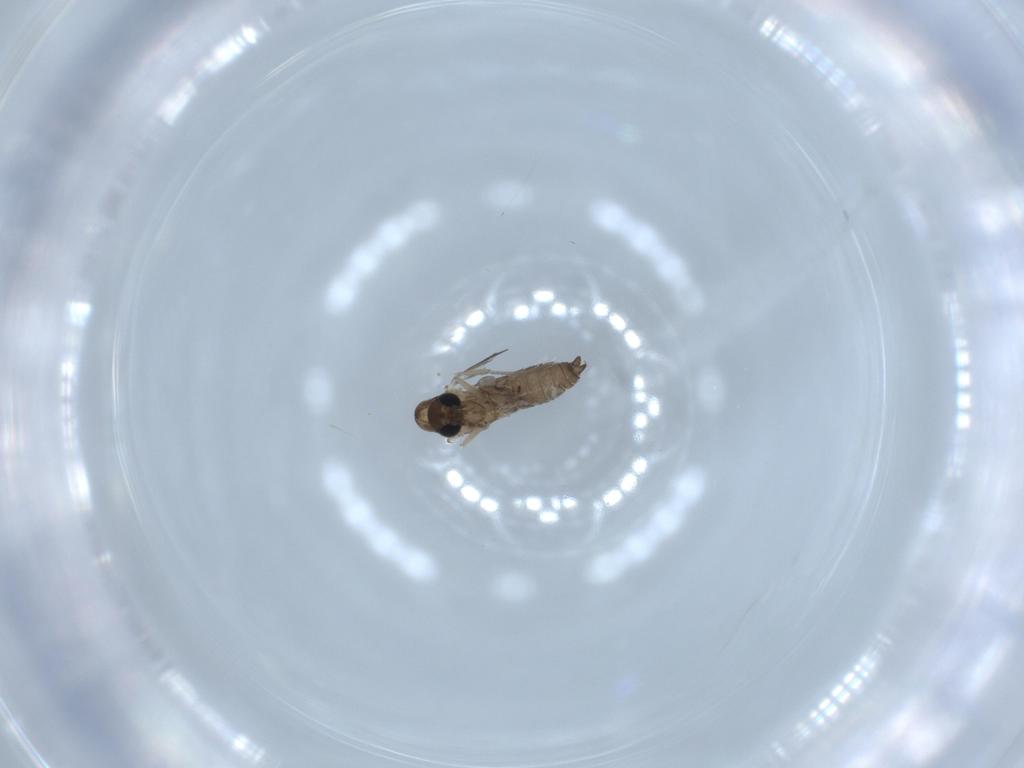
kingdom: Animalia
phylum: Arthropoda
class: Insecta
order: Diptera
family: Psychodidae
